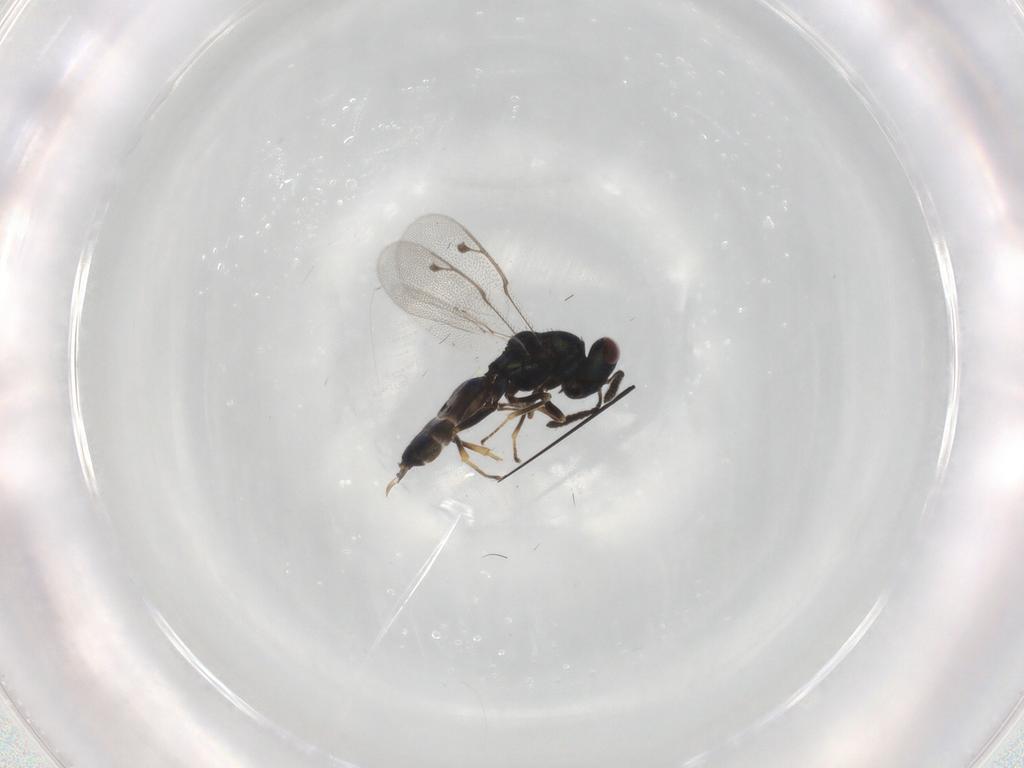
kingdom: Animalia
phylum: Arthropoda
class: Insecta
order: Hymenoptera
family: Pteromalidae
